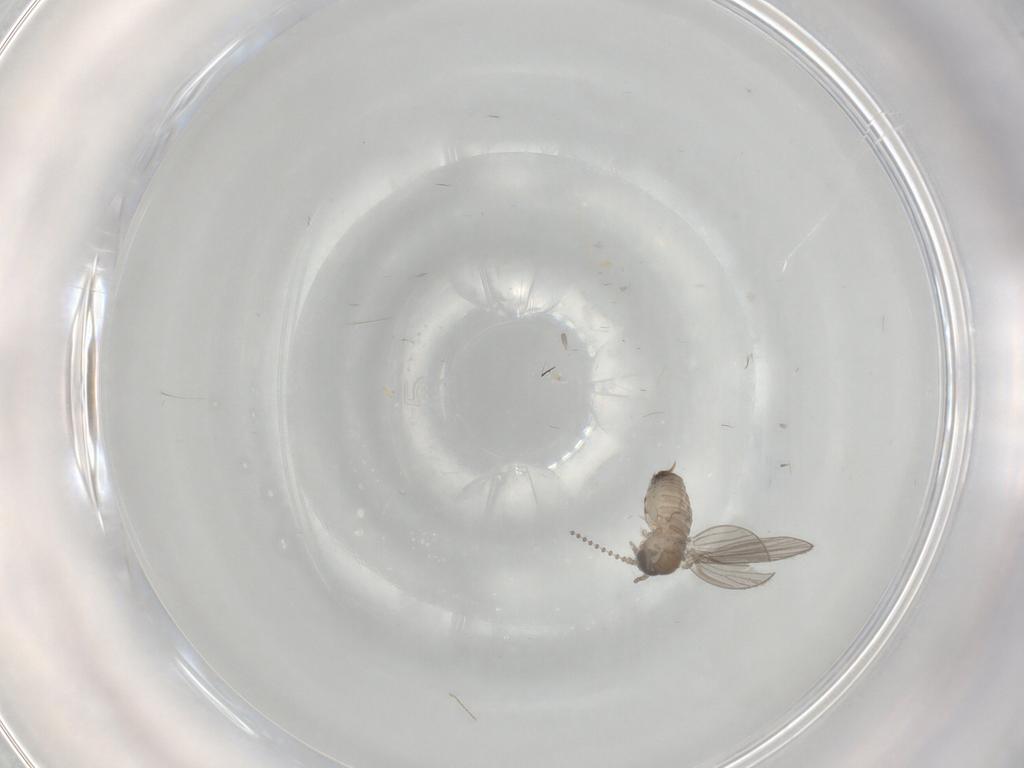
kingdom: Animalia
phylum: Arthropoda
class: Insecta
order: Diptera
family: Psychodidae
